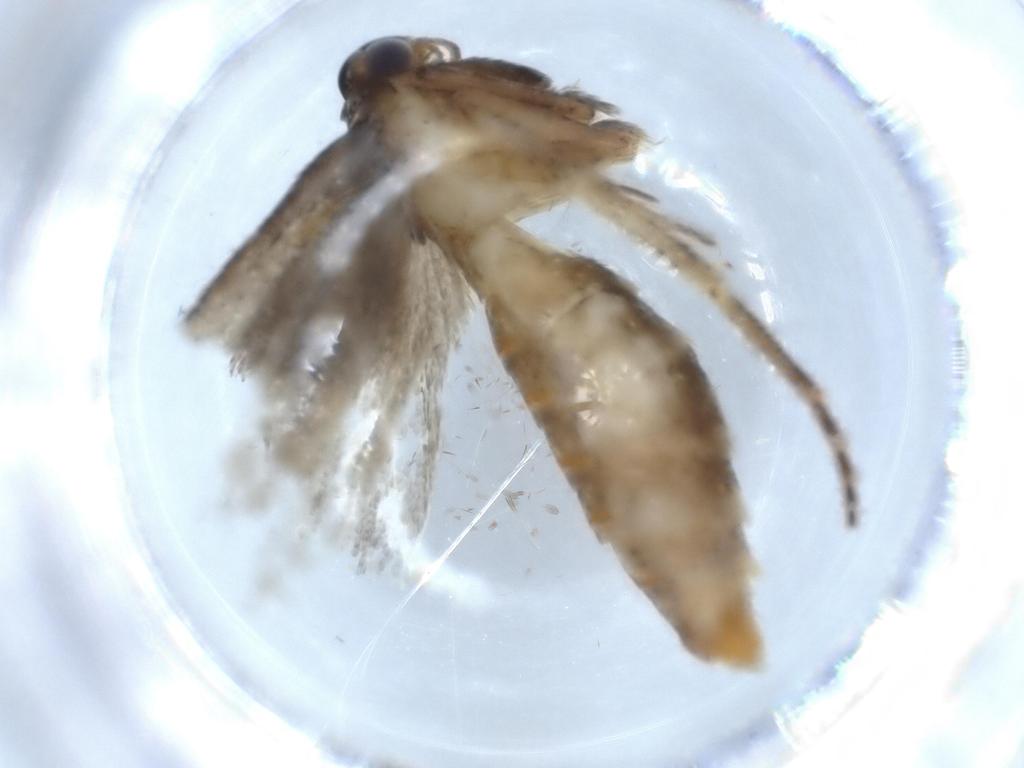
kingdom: Animalia
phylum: Arthropoda
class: Insecta
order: Lepidoptera
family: Blastobasidae
